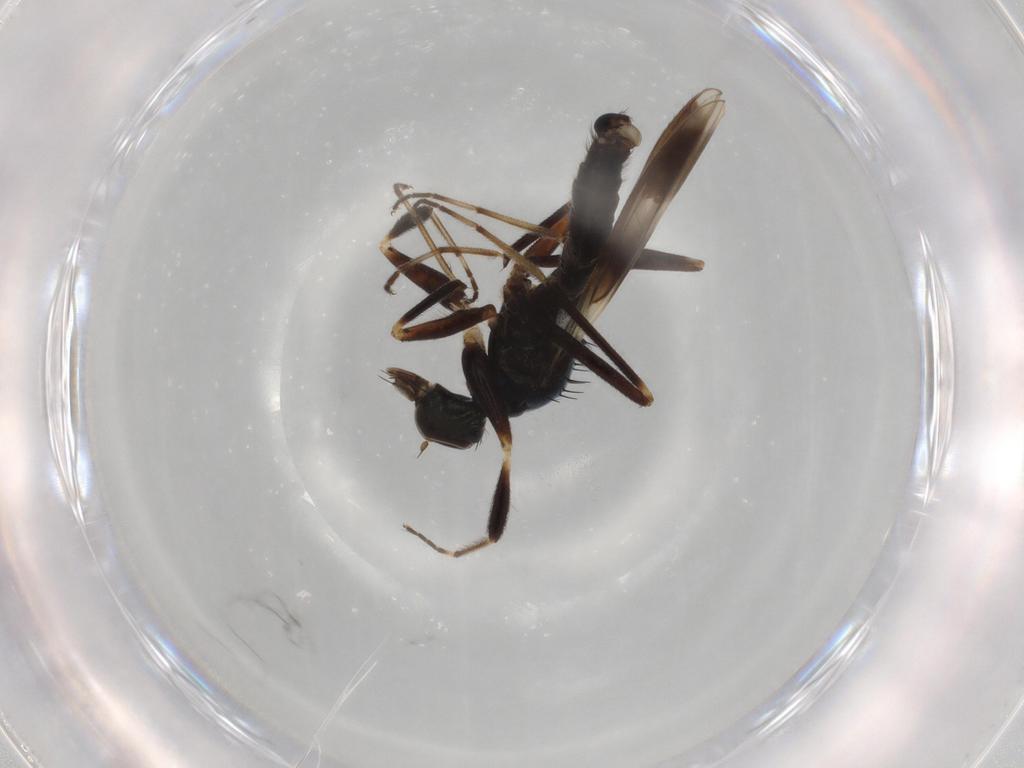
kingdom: Animalia
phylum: Arthropoda
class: Insecta
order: Diptera
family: Hybotidae
